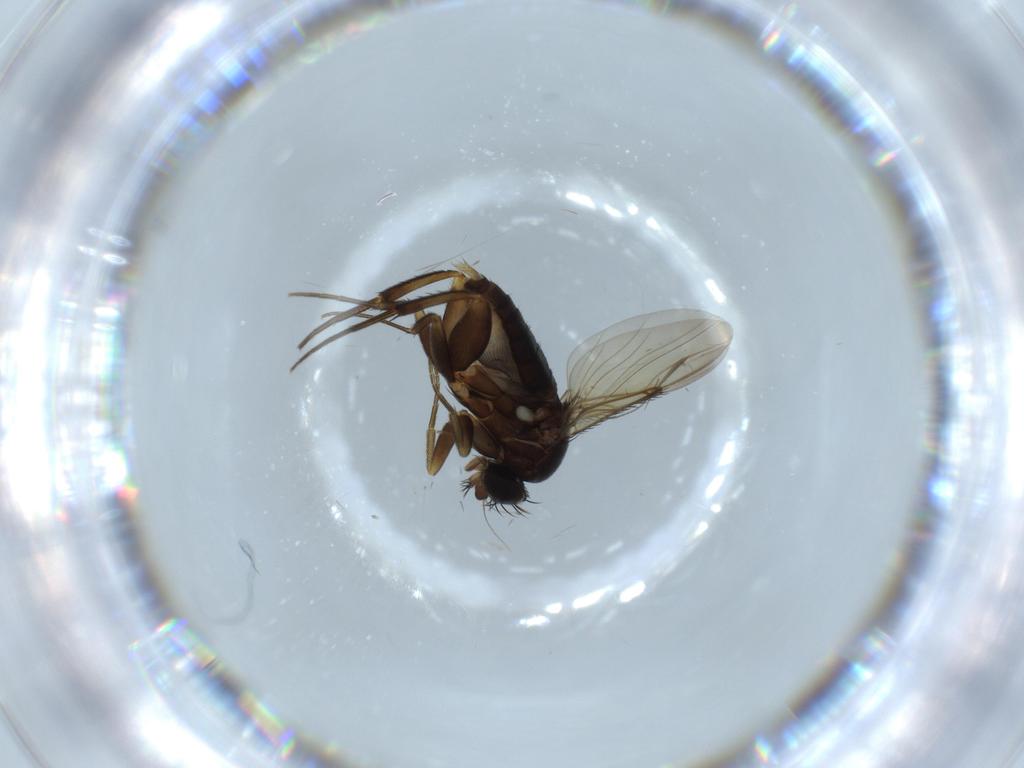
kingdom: Animalia
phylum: Arthropoda
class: Insecta
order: Diptera
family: Phoridae
